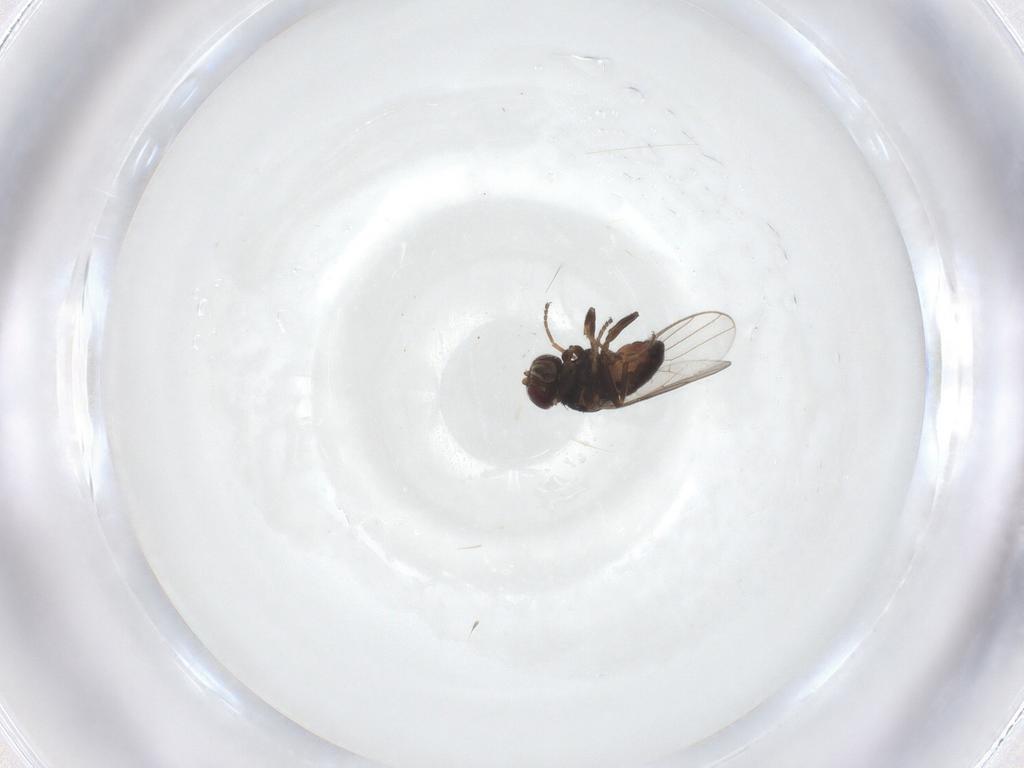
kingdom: Animalia
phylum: Arthropoda
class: Insecta
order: Diptera
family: Chloropidae
